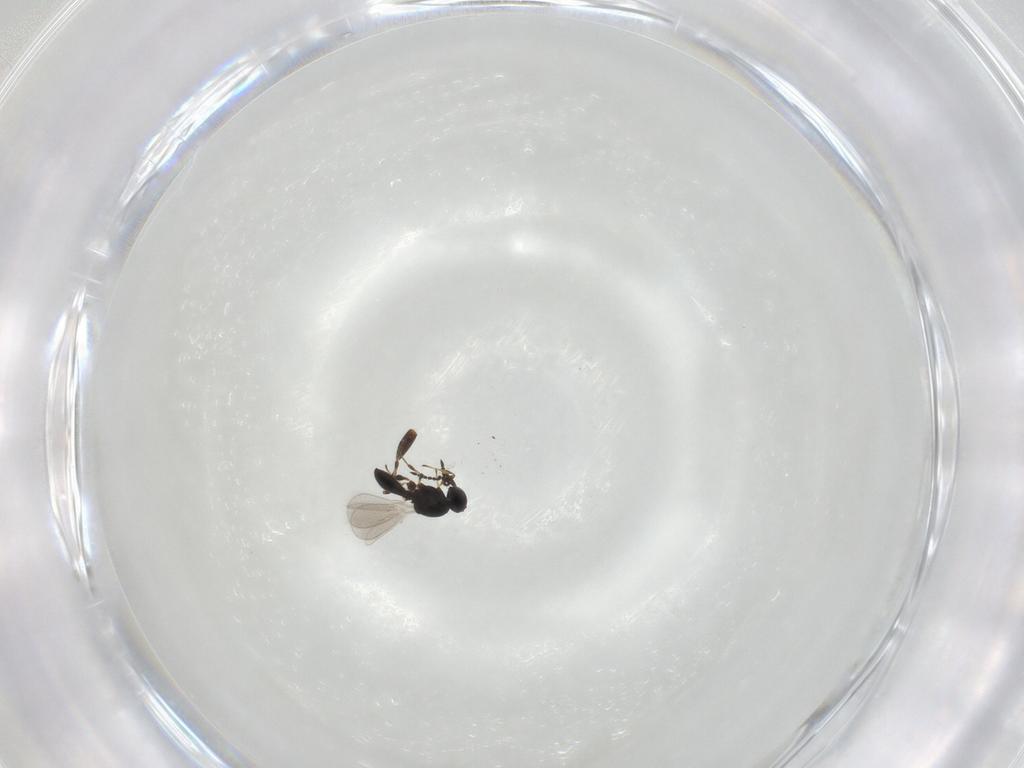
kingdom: Animalia
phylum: Arthropoda
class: Insecta
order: Hymenoptera
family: Formicidae
